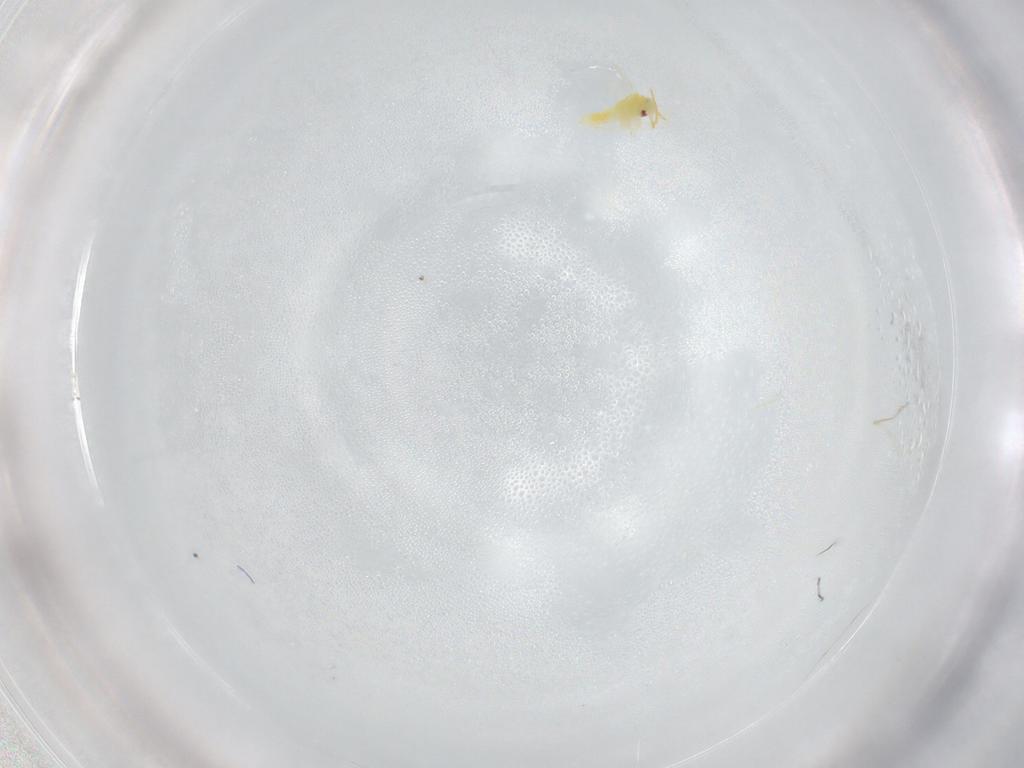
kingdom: Animalia
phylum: Arthropoda
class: Insecta
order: Hemiptera
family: Aleyrodidae
